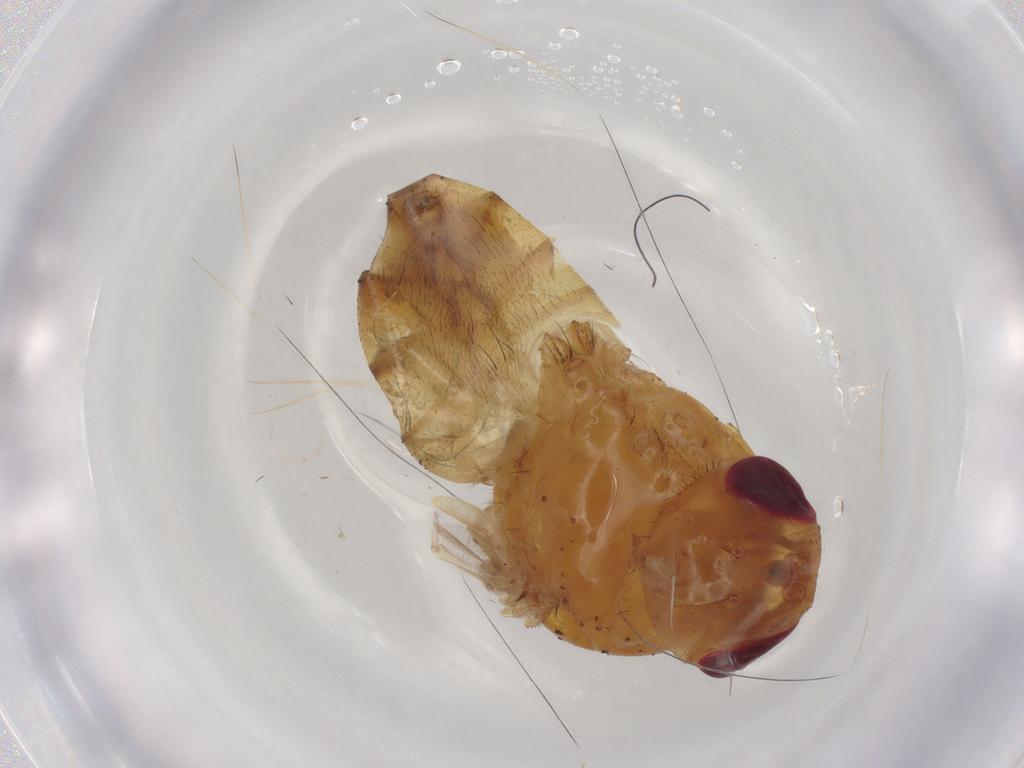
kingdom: Animalia
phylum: Arthropoda
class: Insecta
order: Diptera
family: Calliphoridae
